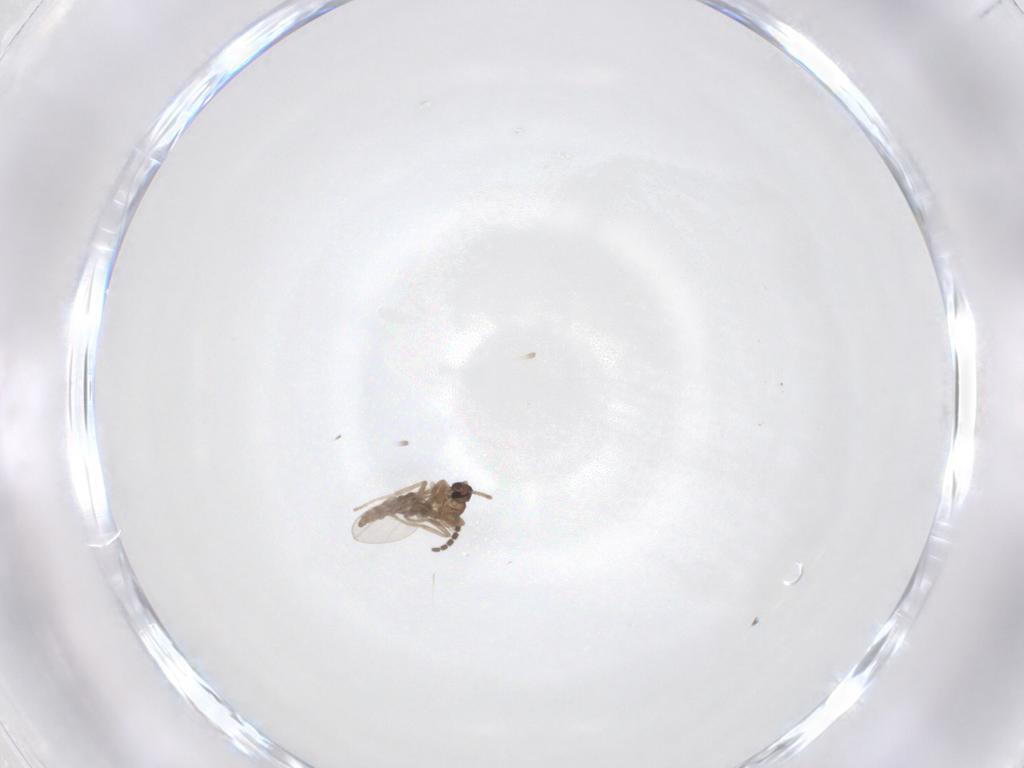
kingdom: Animalia
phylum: Arthropoda
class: Insecta
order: Diptera
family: Cecidomyiidae
